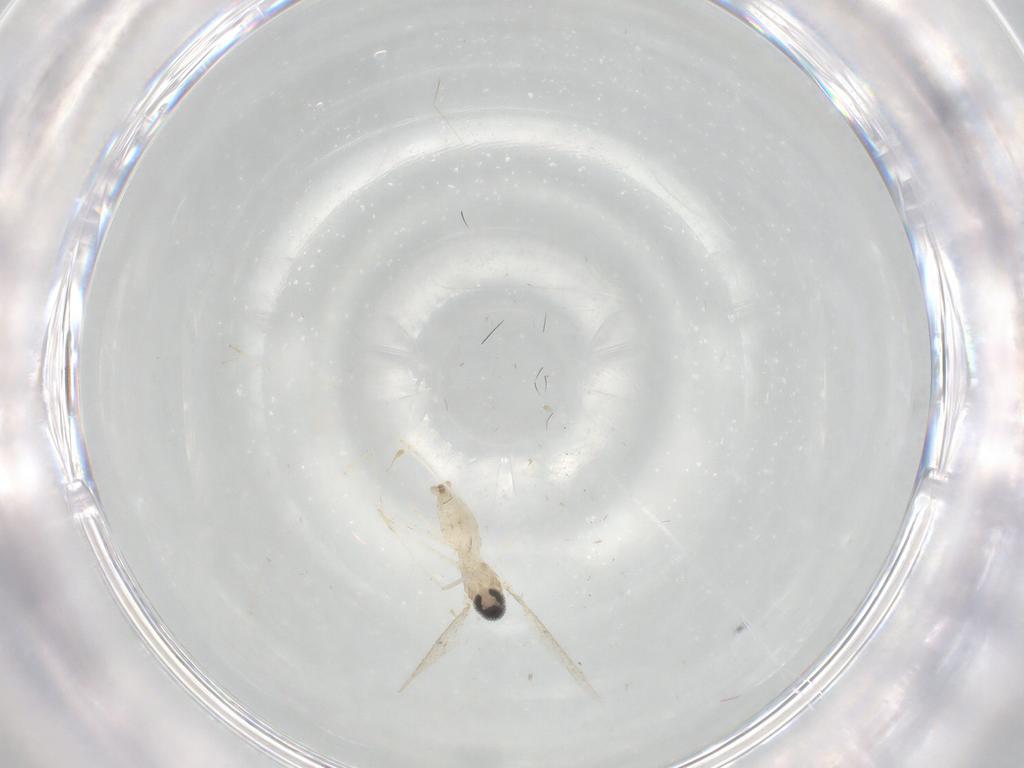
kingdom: Animalia
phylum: Arthropoda
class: Insecta
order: Diptera
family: Cecidomyiidae
